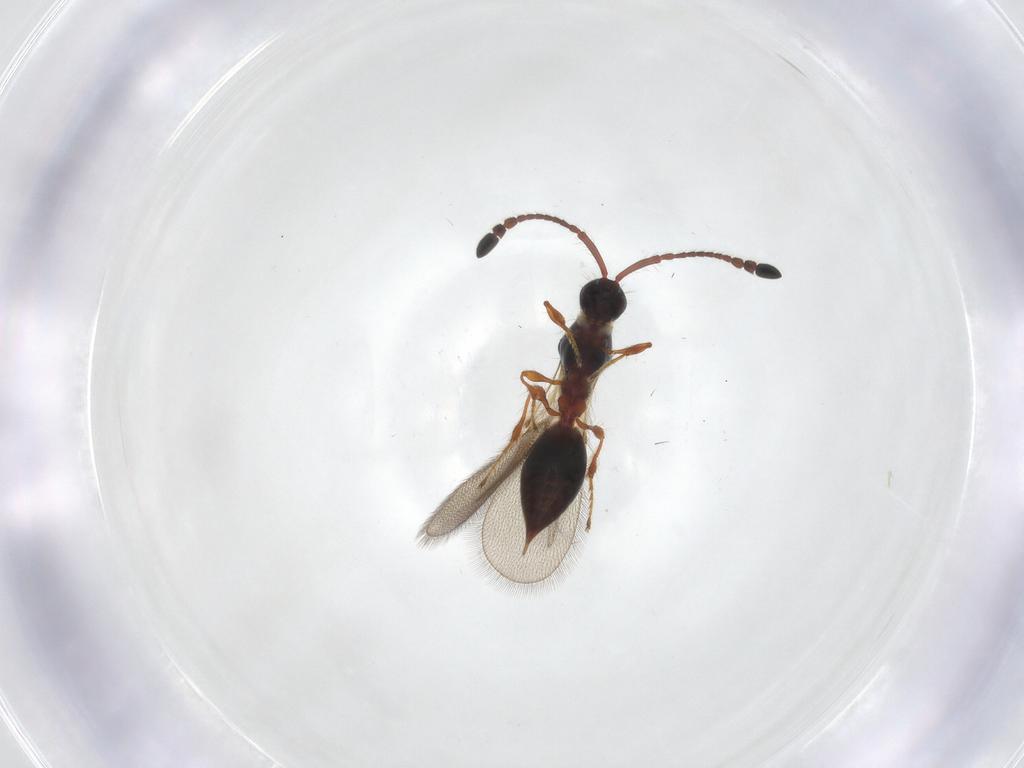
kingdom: Animalia
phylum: Arthropoda
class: Insecta
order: Hymenoptera
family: Diapriidae
